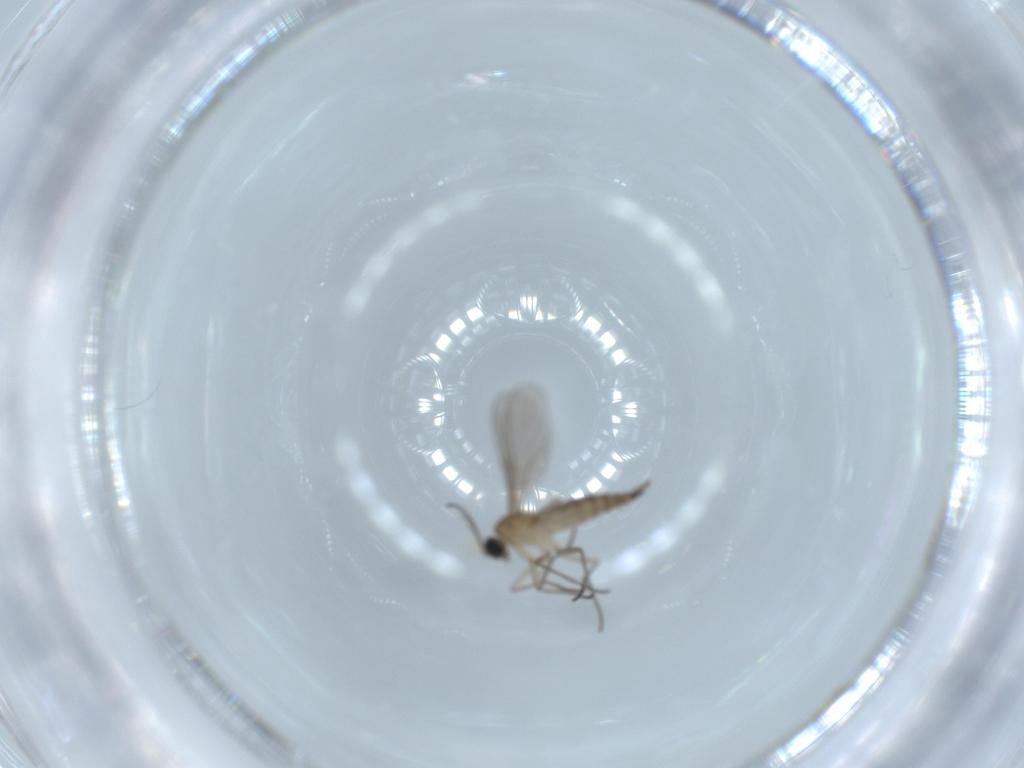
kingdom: Animalia
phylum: Arthropoda
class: Insecta
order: Diptera
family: Sciaridae
